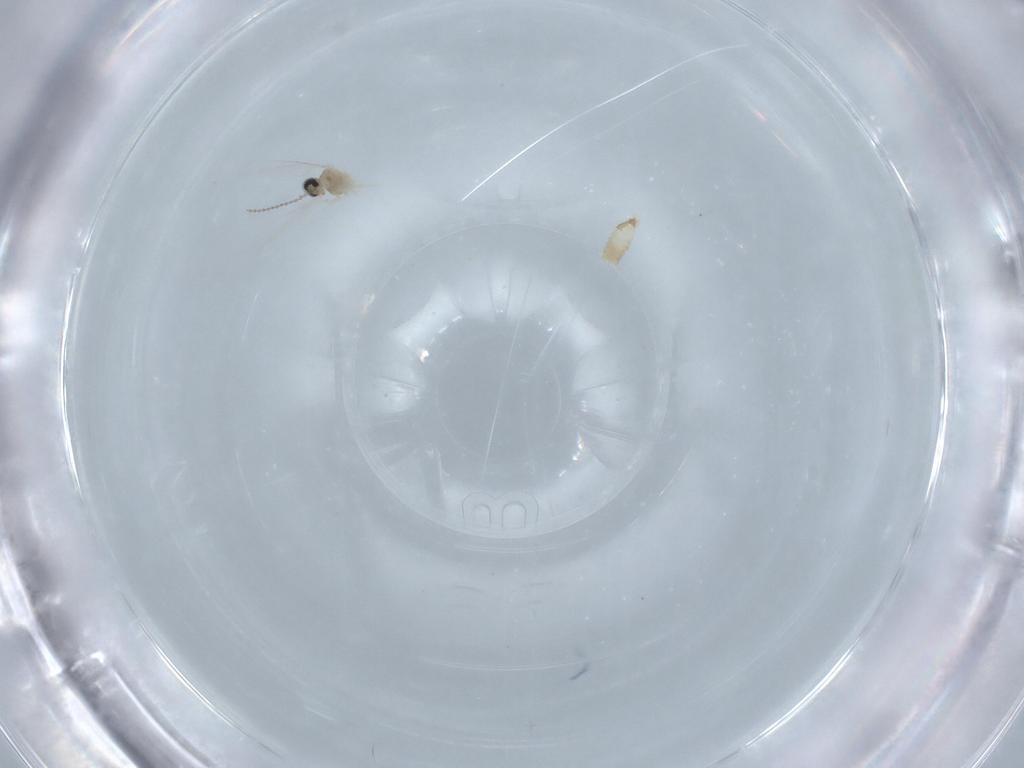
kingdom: Animalia
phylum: Arthropoda
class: Insecta
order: Diptera
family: Cecidomyiidae
